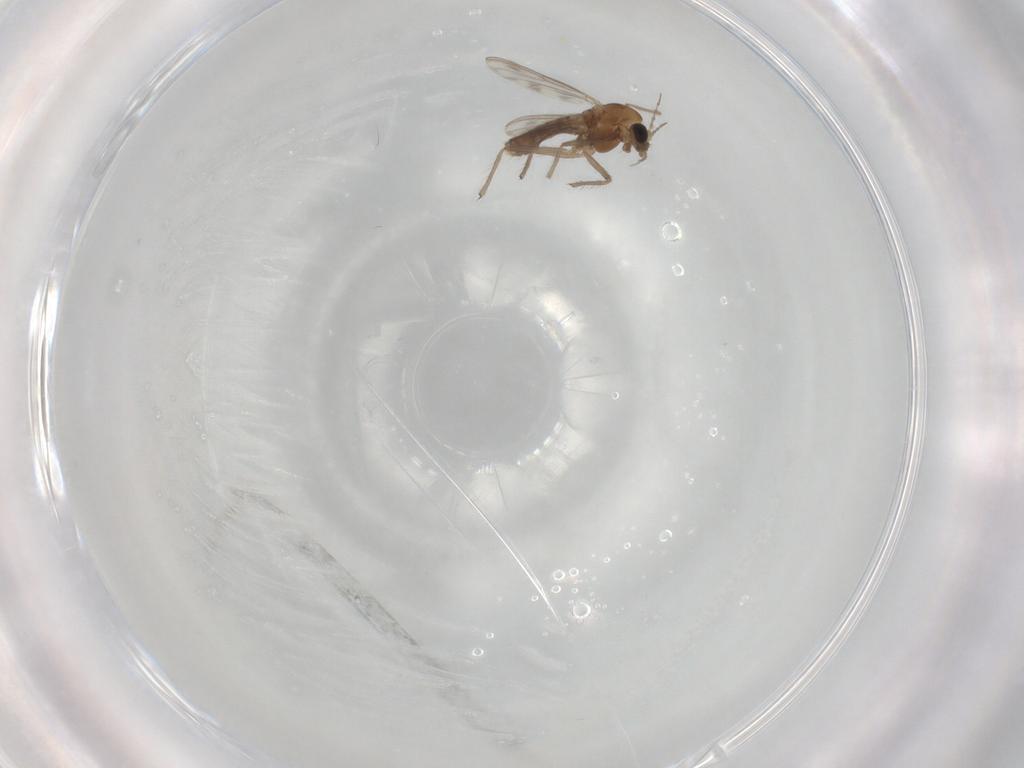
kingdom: Animalia
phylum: Arthropoda
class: Insecta
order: Diptera
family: Chironomidae
